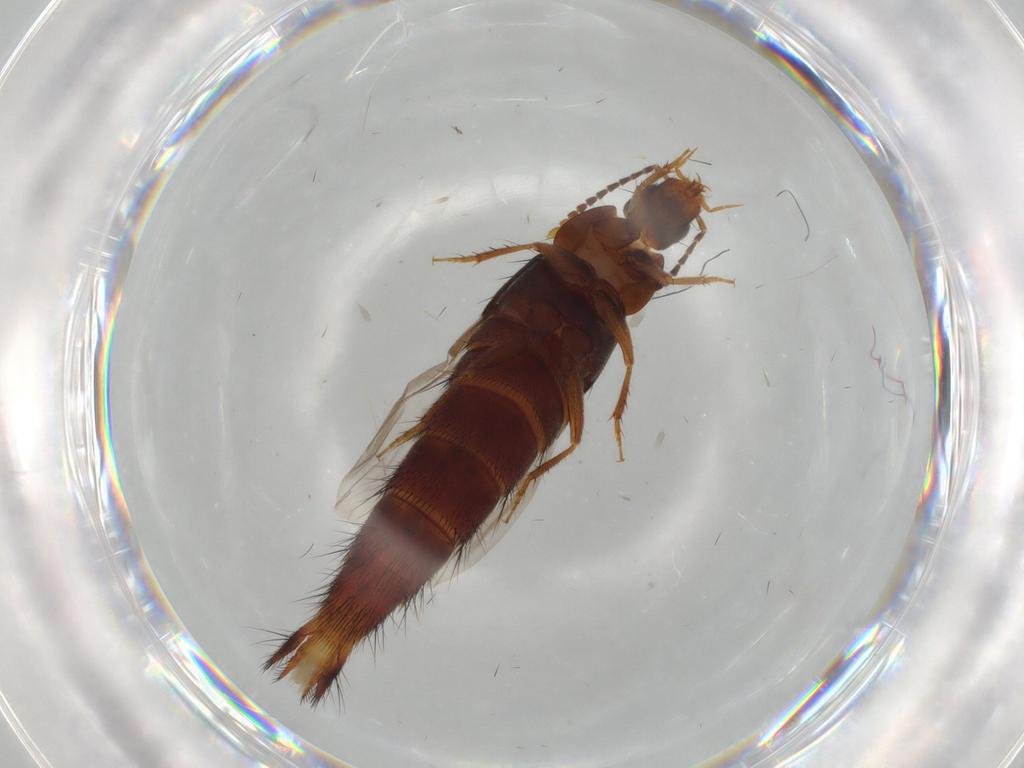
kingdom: Animalia
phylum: Arthropoda
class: Insecta
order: Coleoptera
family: Staphylinidae
